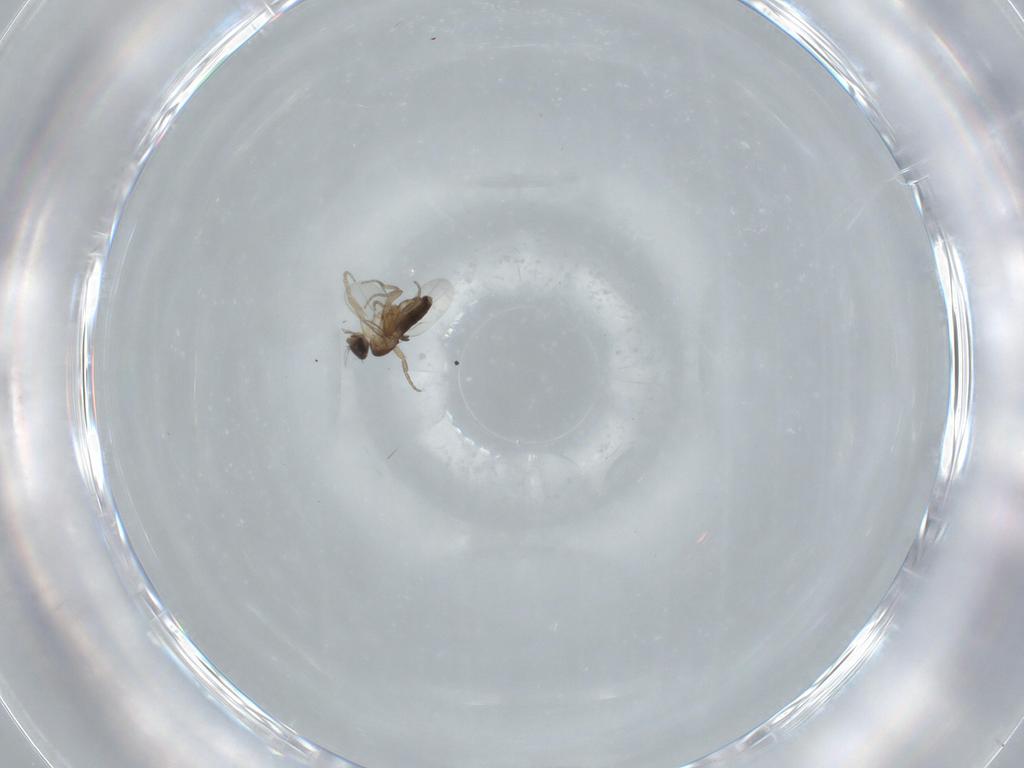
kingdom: Animalia
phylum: Arthropoda
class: Insecta
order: Diptera
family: Phoridae
